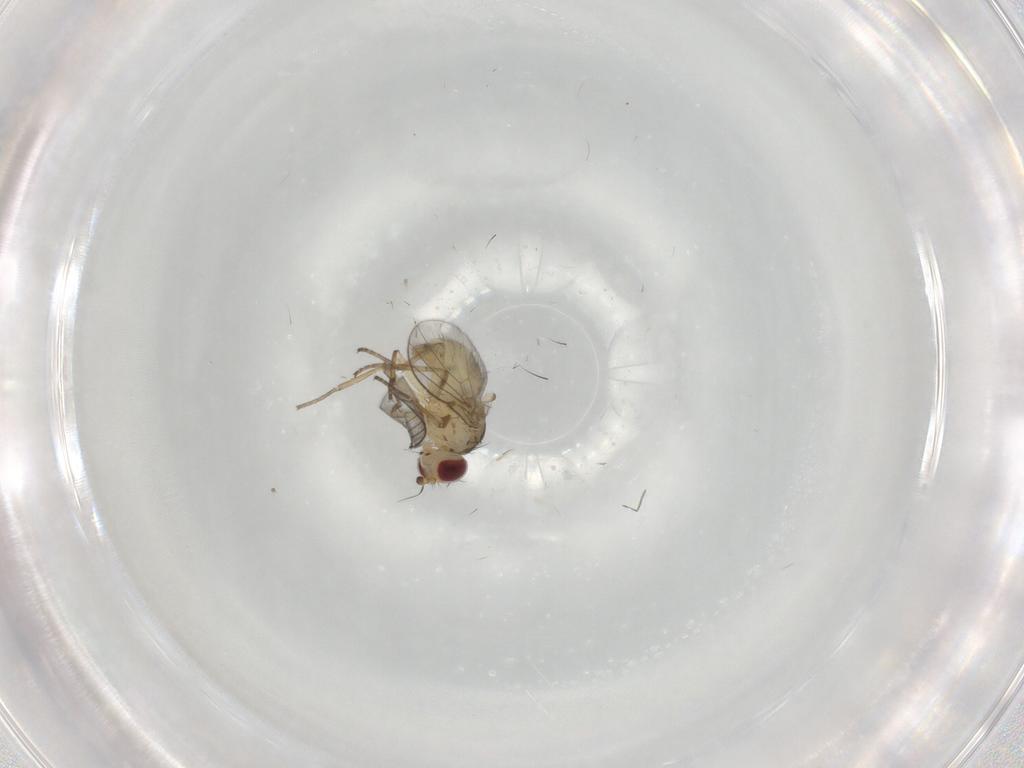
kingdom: Animalia
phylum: Arthropoda
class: Insecta
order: Diptera
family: Agromyzidae
